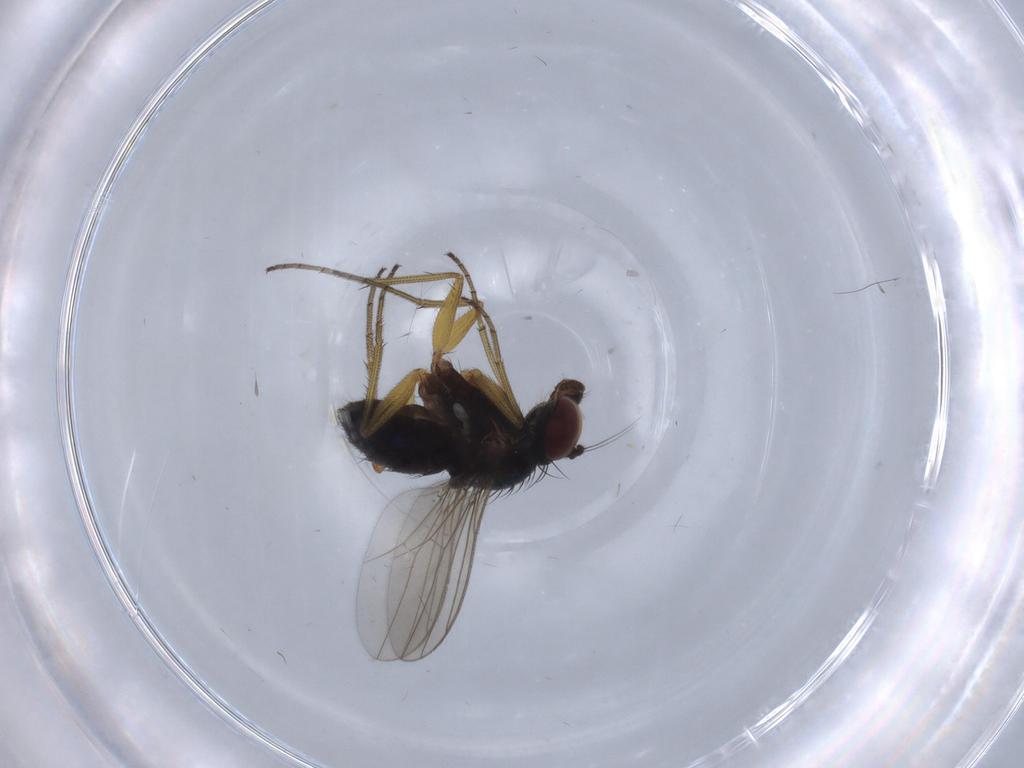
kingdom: Animalia
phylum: Arthropoda
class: Insecta
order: Diptera
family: Dolichopodidae
